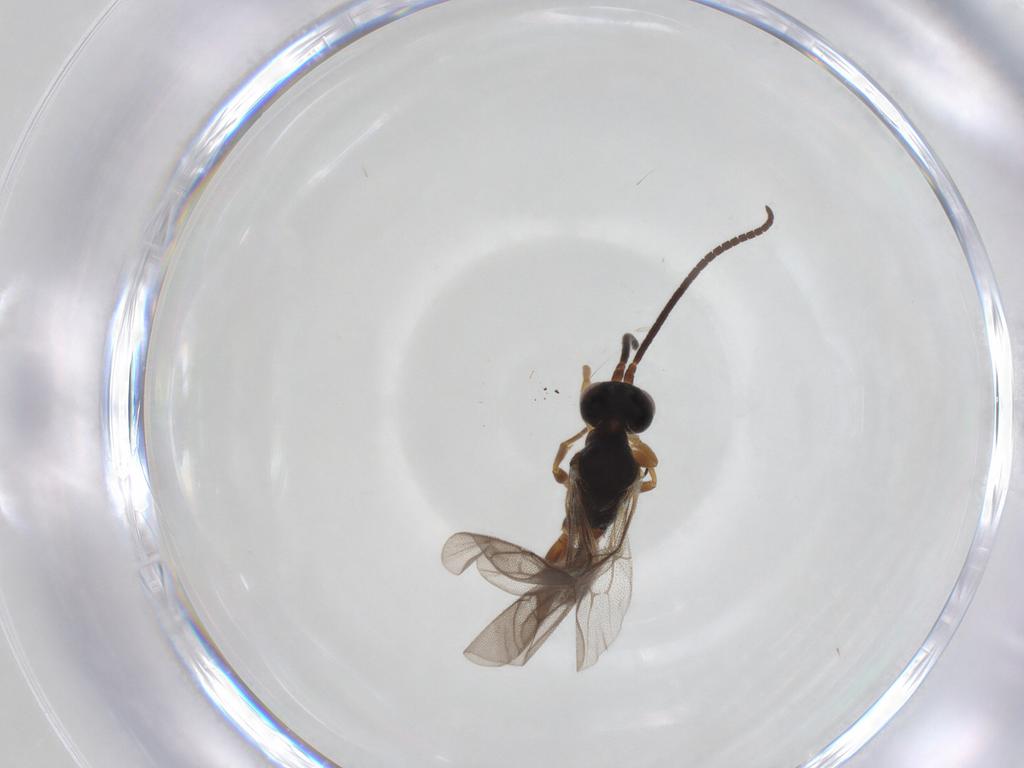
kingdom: Animalia
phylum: Arthropoda
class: Insecta
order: Hymenoptera
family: Ichneumonidae
